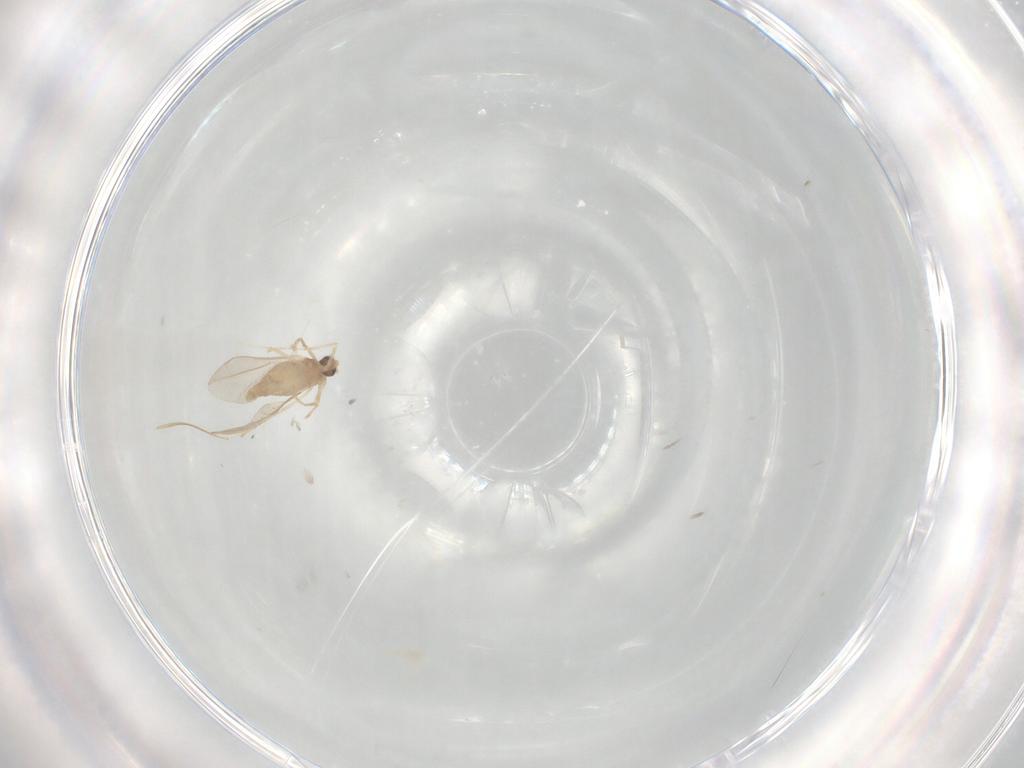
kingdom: Animalia
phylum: Arthropoda
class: Insecta
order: Diptera
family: Cecidomyiidae
